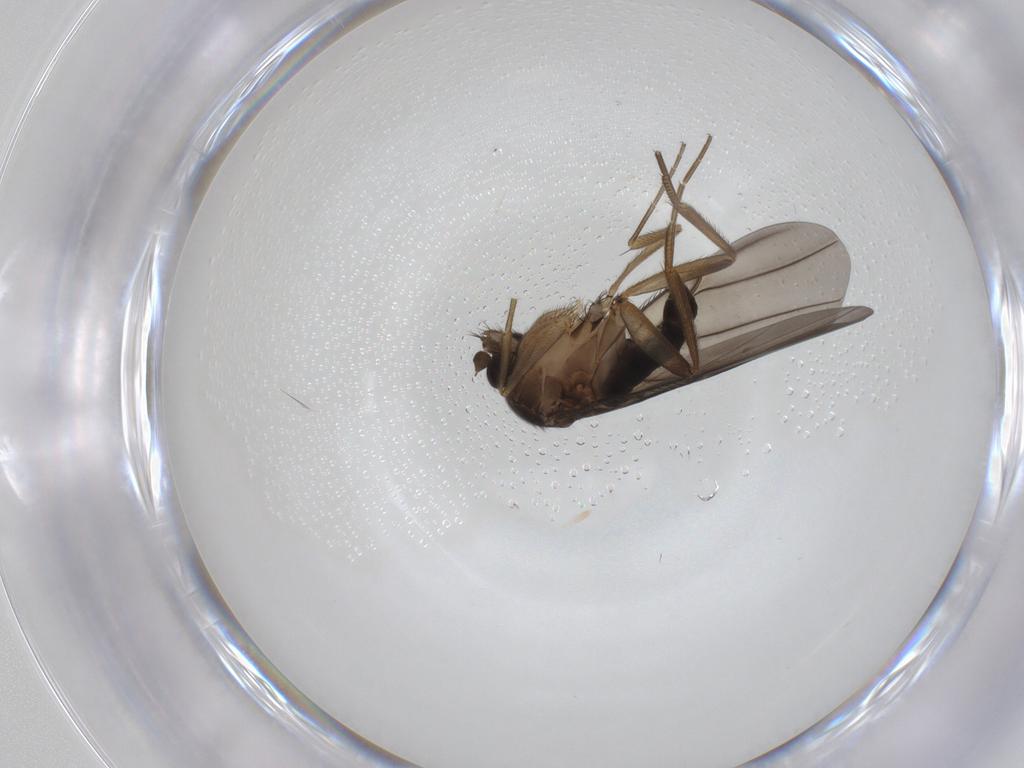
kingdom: Animalia
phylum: Arthropoda
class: Insecta
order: Diptera
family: Phoridae
